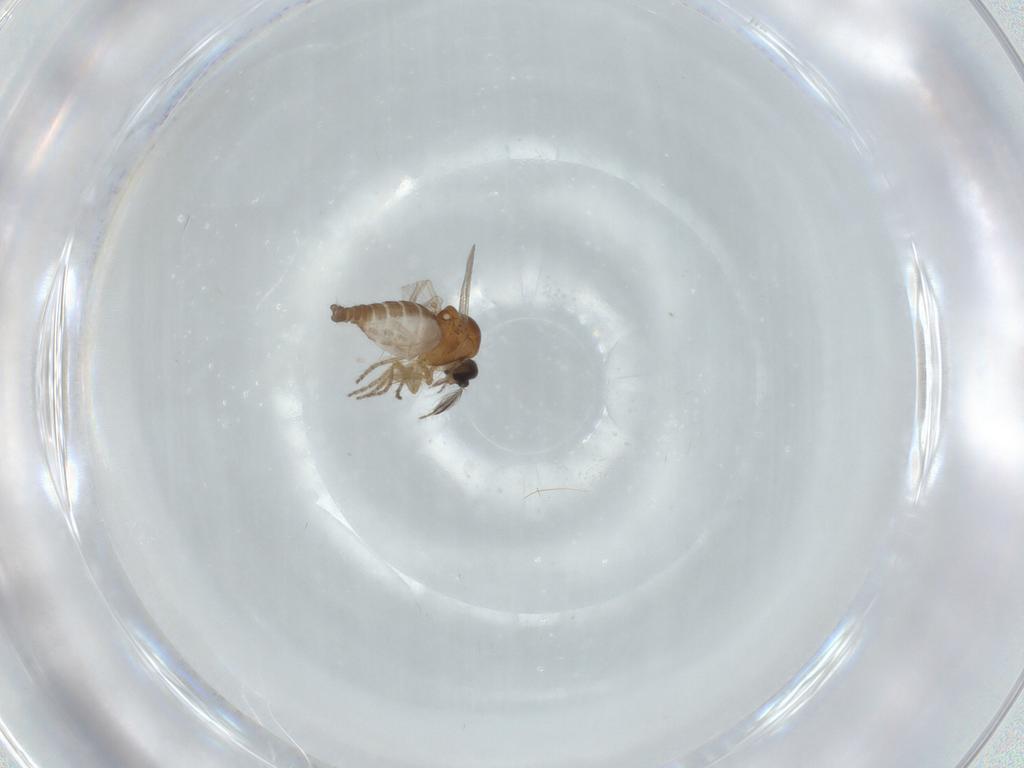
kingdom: Animalia
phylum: Arthropoda
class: Insecta
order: Diptera
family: Ceratopogonidae
